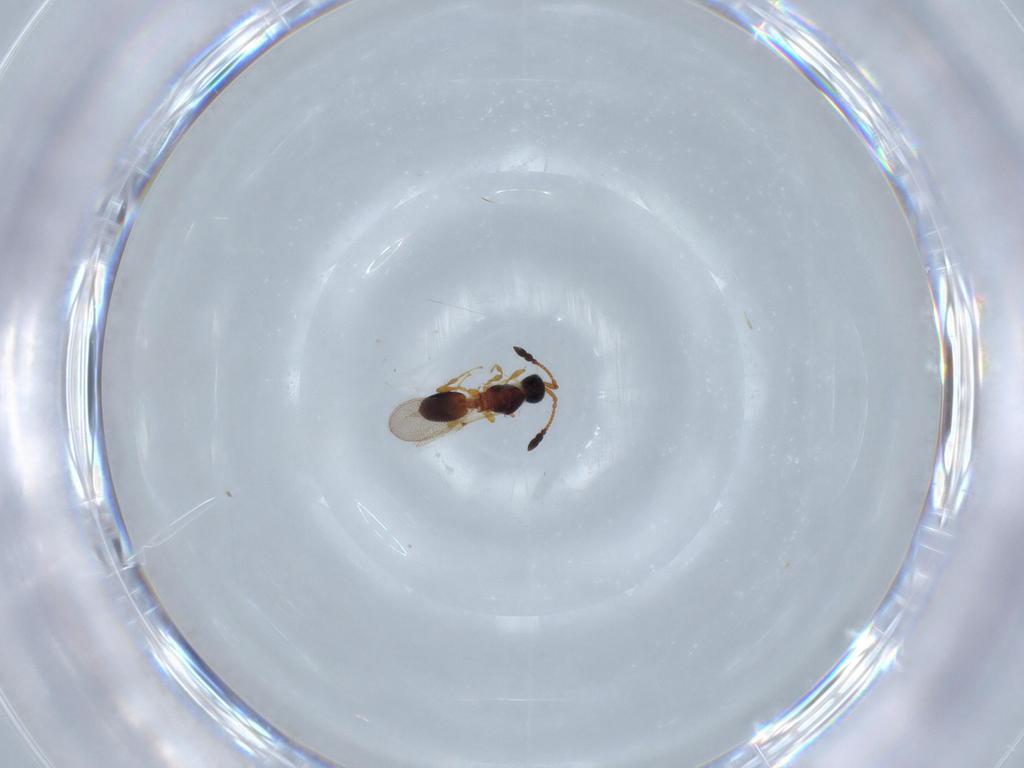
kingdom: Animalia
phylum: Arthropoda
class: Insecta
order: Hymenoptera
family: Diapriidae
